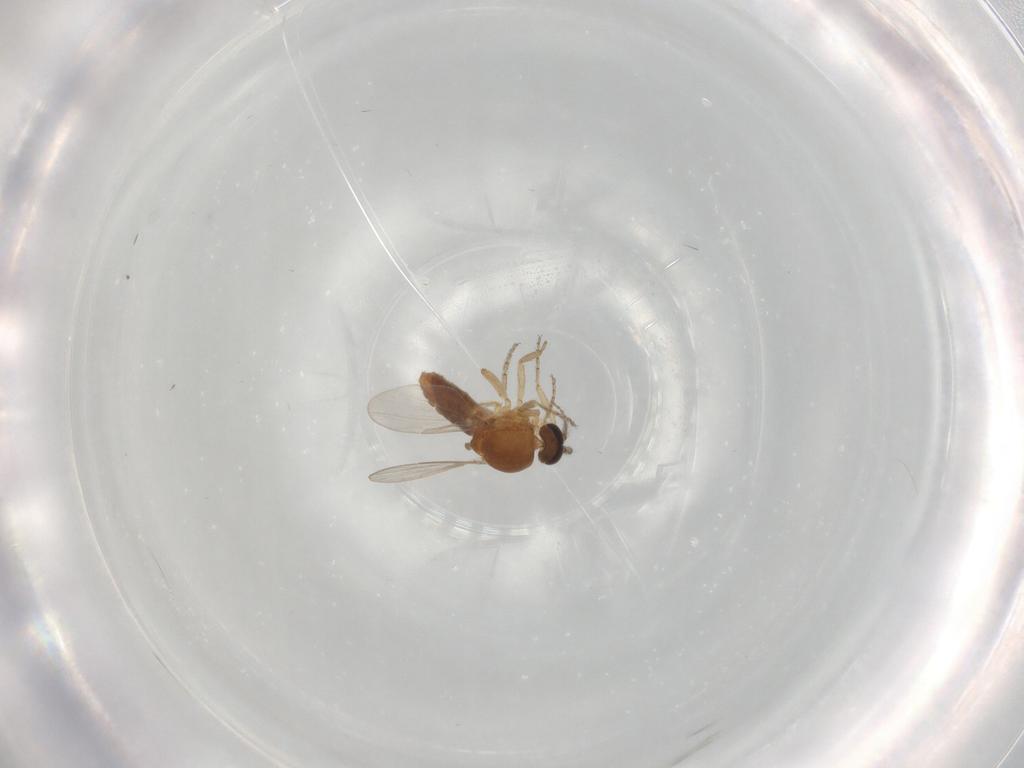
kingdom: Animalia
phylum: Arthropoda
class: Insecta
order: Diptera
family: Ceratopogonidae
